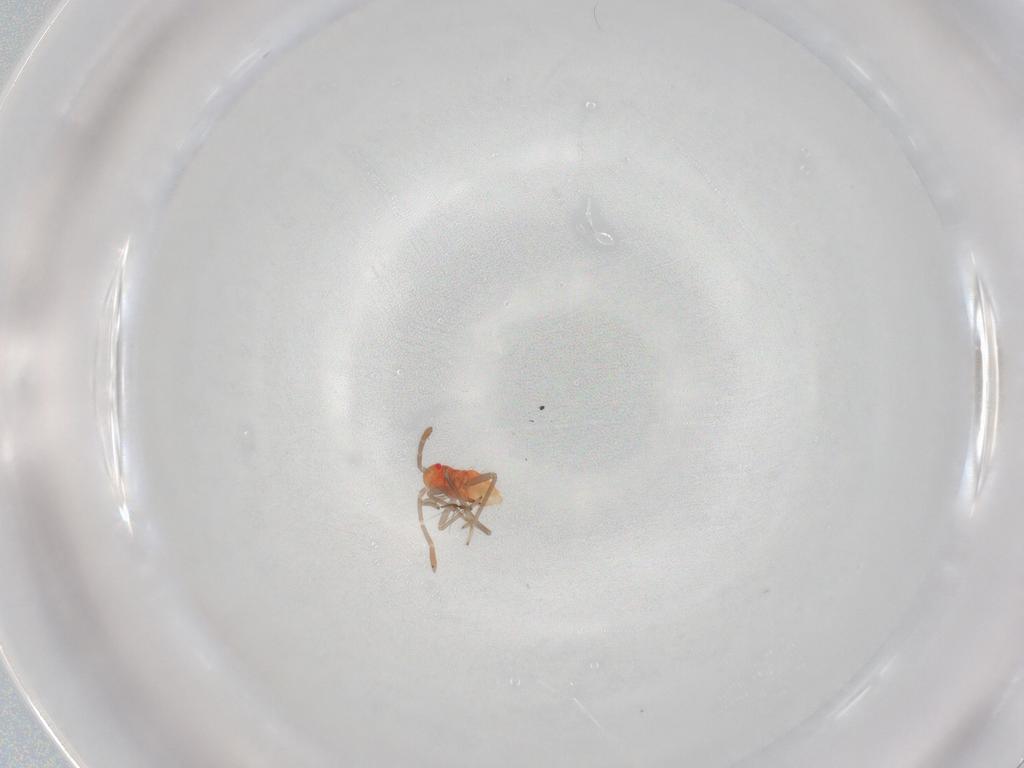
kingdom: Animalia
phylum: Arthropoda
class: Insecta
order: Hemiptera
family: Miridae
